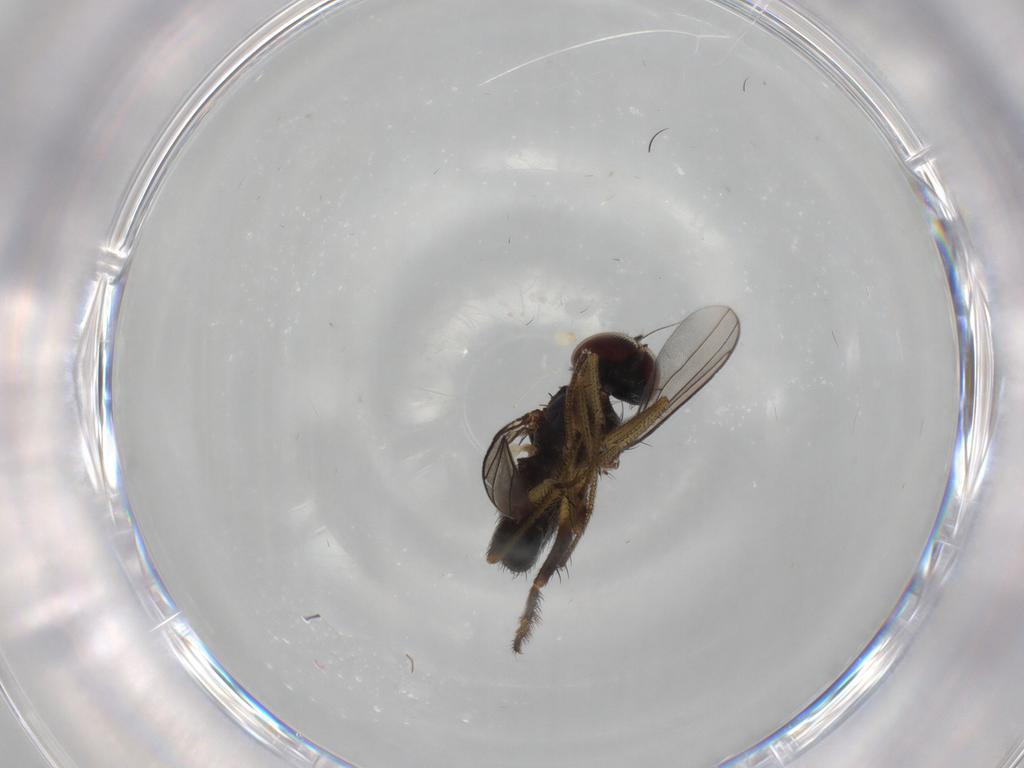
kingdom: Animalia
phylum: Arthropoda
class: Insecta
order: Diptera
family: Dolichopodidae
